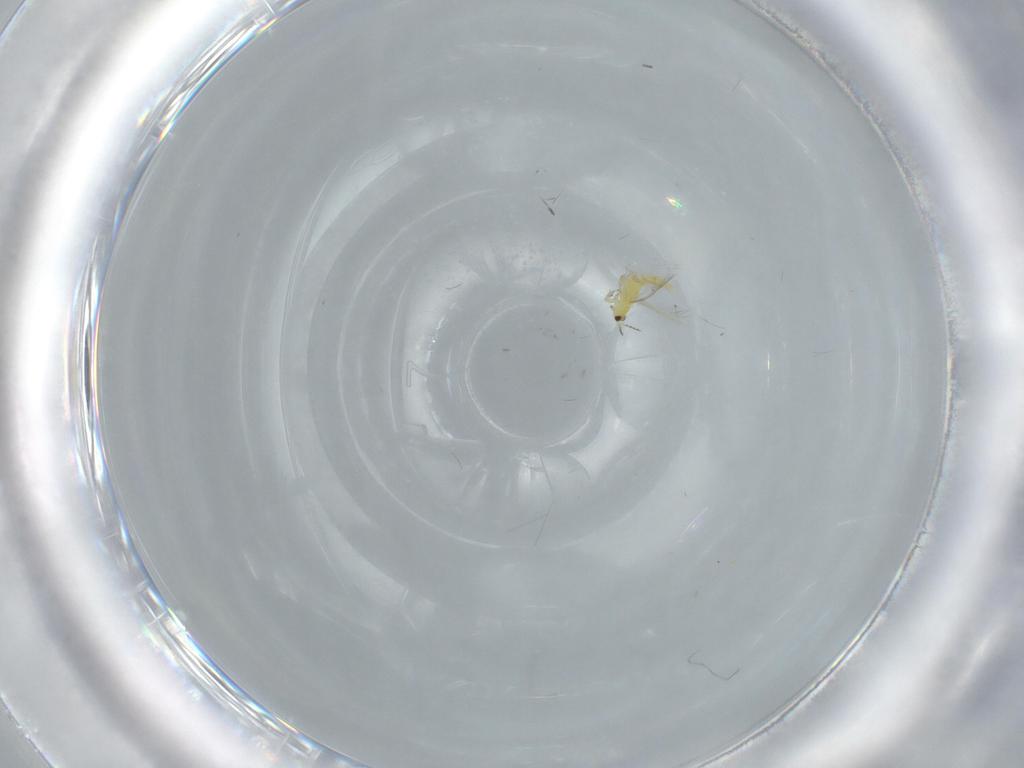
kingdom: Animalia
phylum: Arthropoda
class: Insecta
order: Thysanoptera
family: Thripidae
